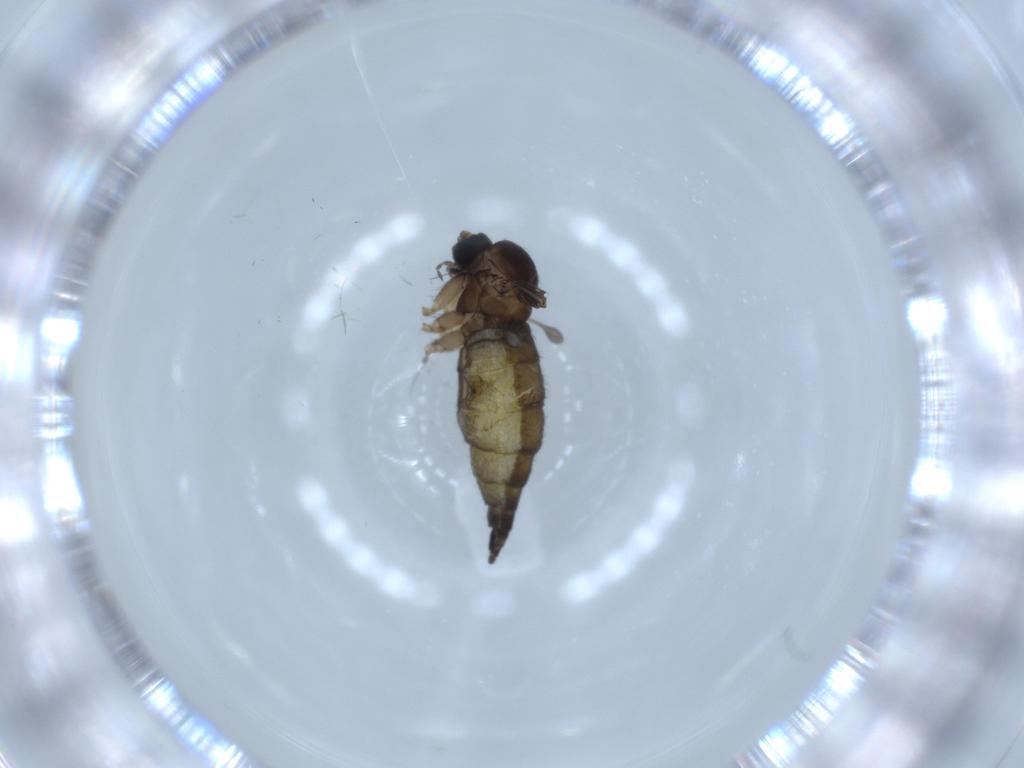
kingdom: Animalia
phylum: Arthropoda
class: Insecta
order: Diptera
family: Sciaridae
